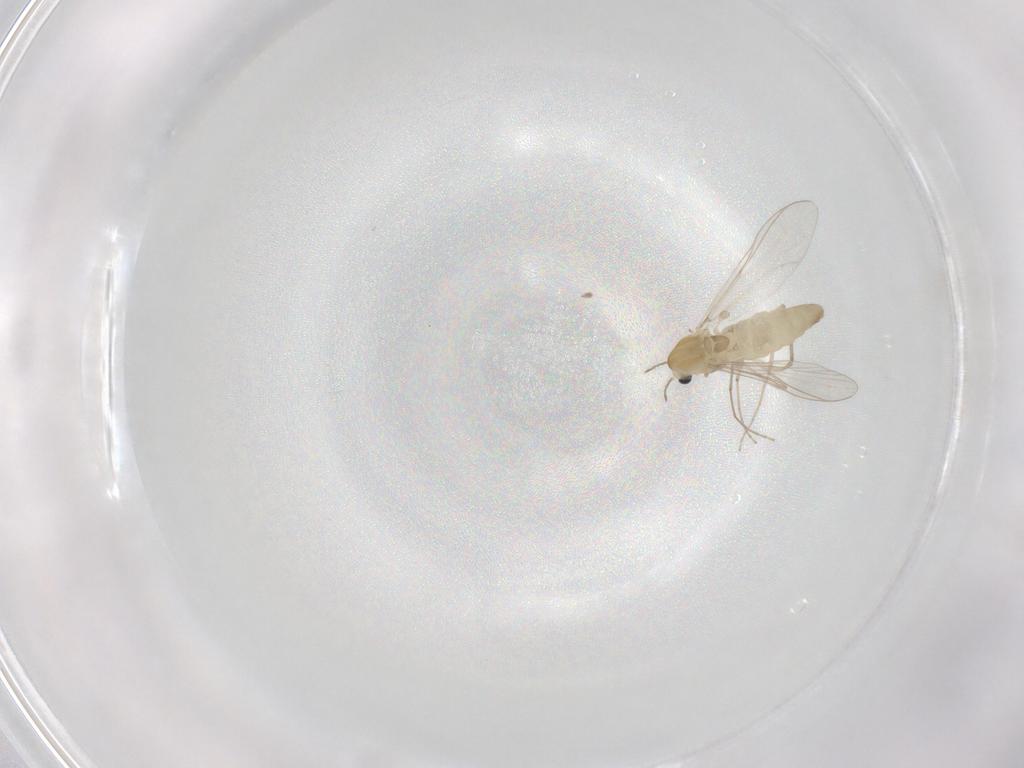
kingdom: Animalia
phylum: Arthropoda
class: Insecta
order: Diptera
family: Chironomidae
